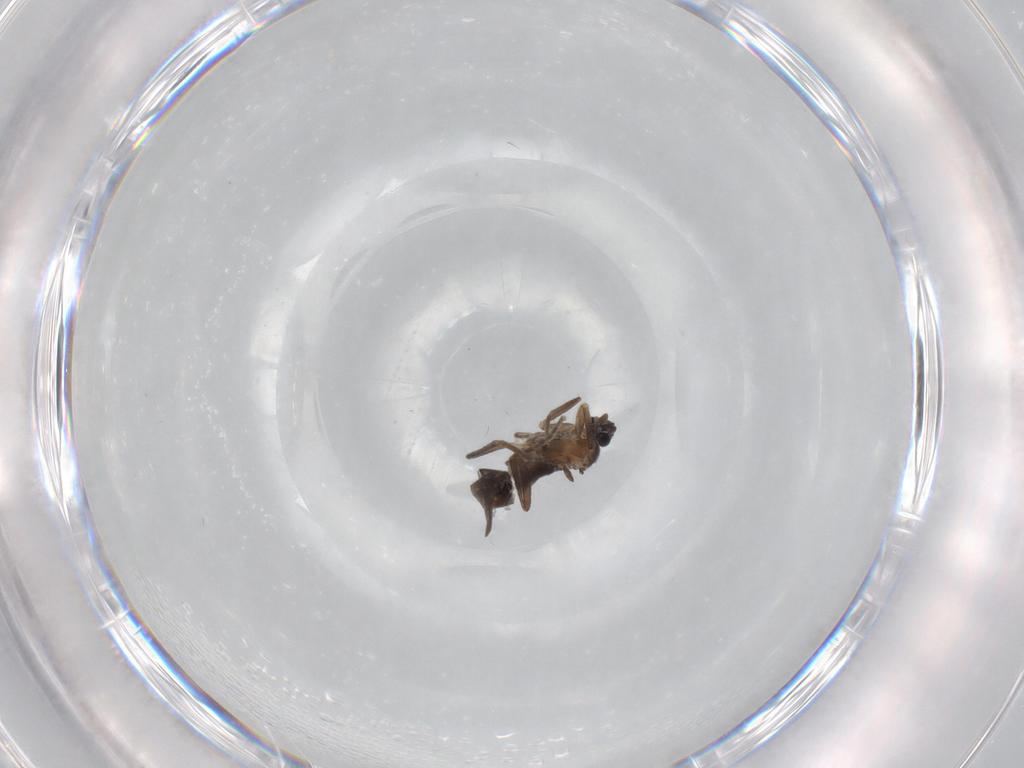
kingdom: Animalia
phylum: Arthropoda
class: Insecta
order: Diptera
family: Phoridae
